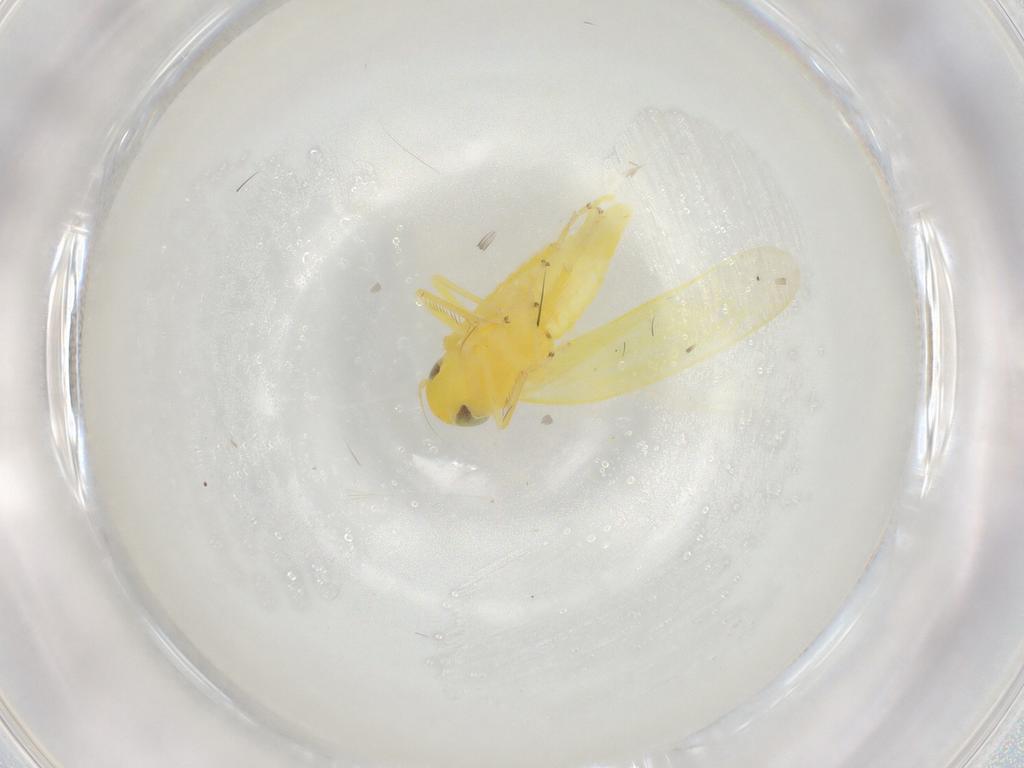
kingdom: Animalia
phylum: Arthropoda
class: Insecta
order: Hemiptera
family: Cicadellidae
